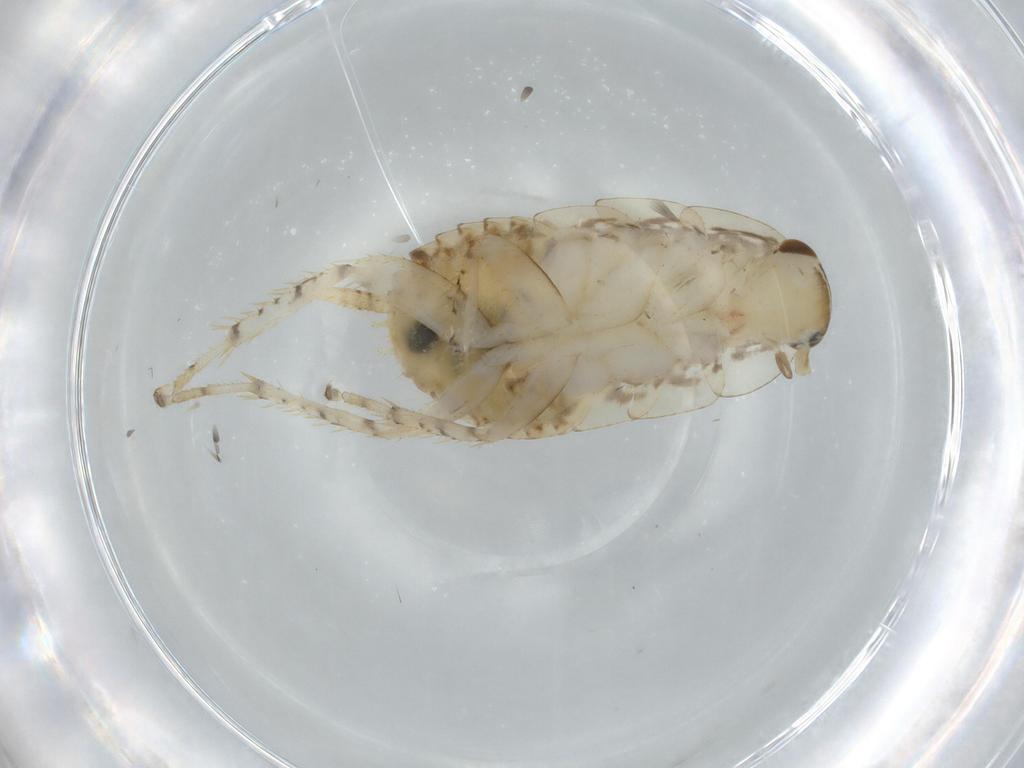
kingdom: Animalia
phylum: Arthropoda
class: Insecta
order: Blattodea
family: Ectobiidae
